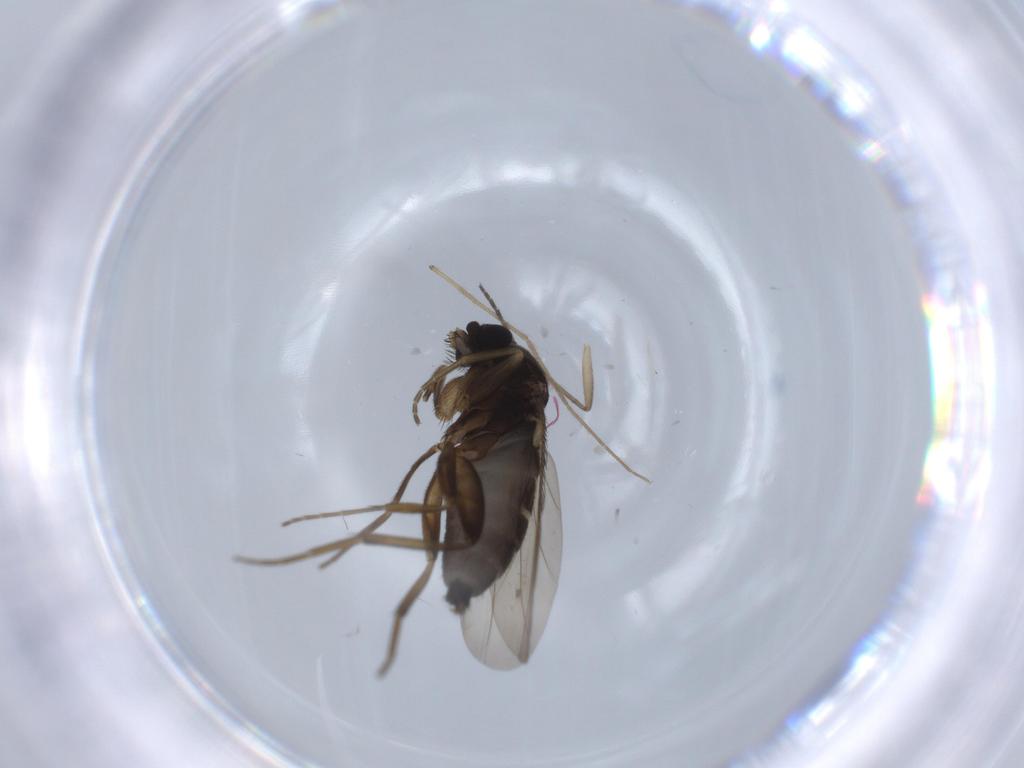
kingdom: Animalia
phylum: Arthropoda
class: Insecta
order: Diptera
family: Phoridae
